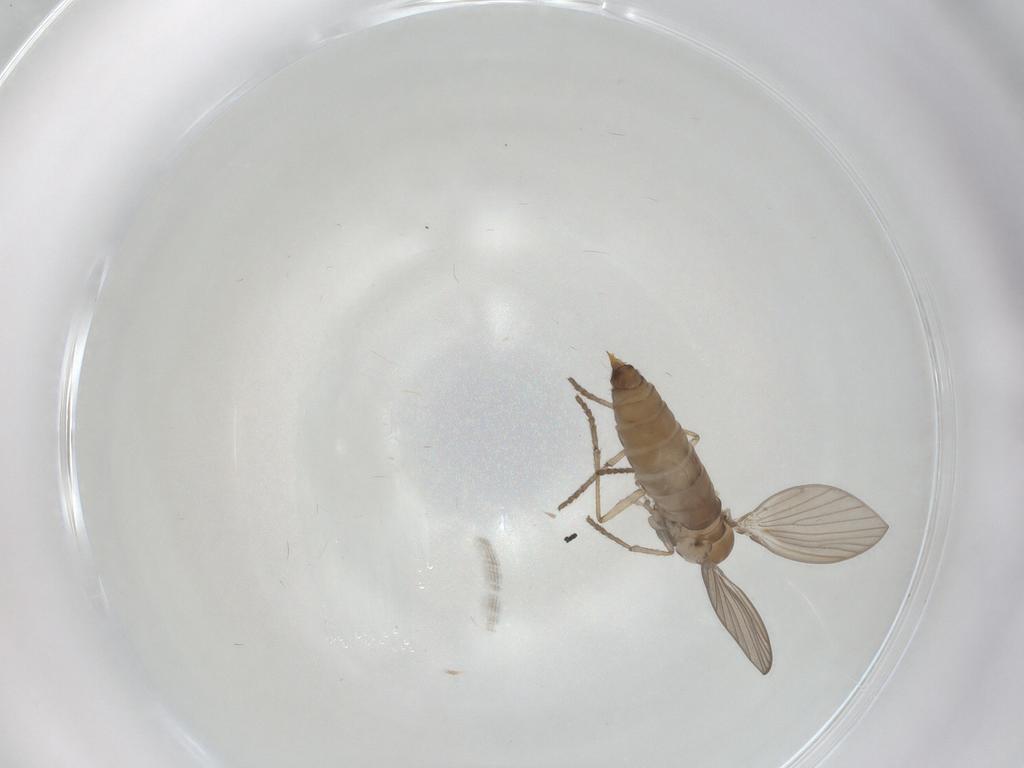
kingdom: Animalia
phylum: Arthropoda
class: Insecta
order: Diptera
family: Psychodidae
